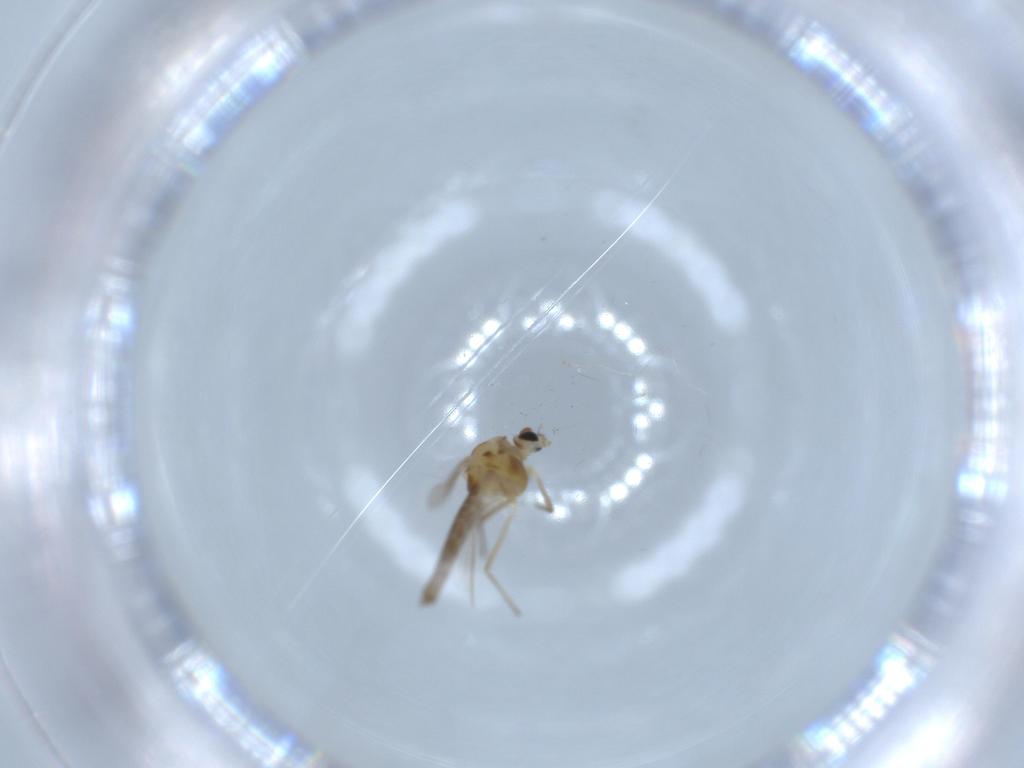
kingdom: Animalia
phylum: Arthropoda
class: Insecta
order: Diptera
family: Chironomidae
